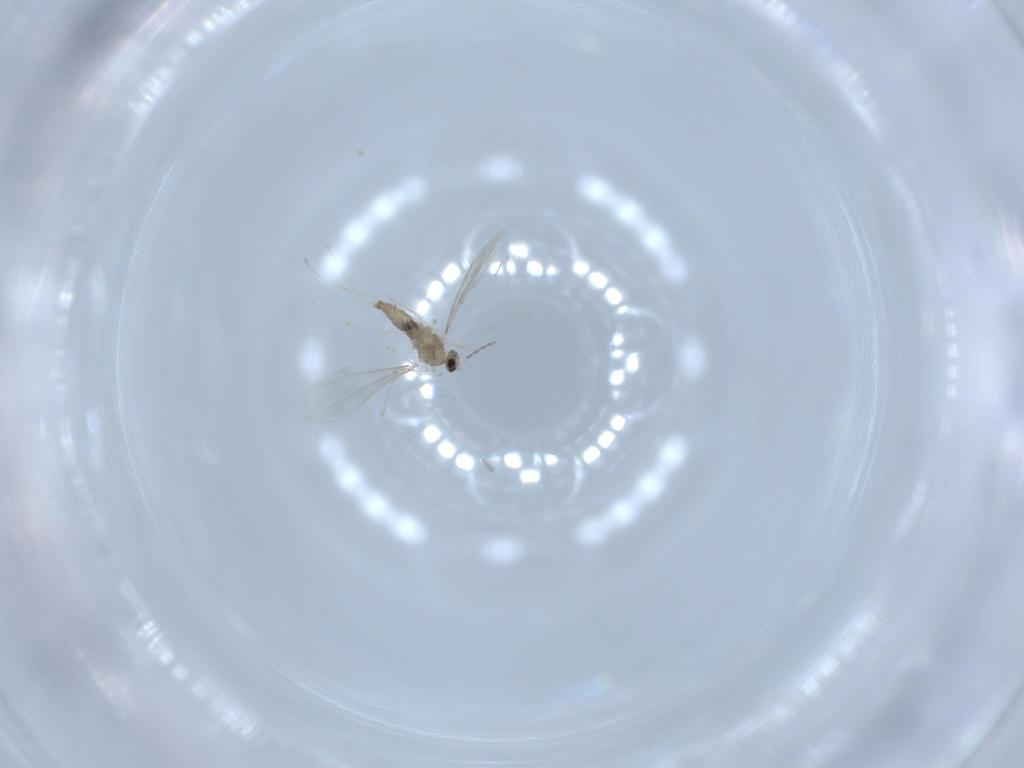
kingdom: Animalia
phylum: Arthropoda
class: Insecta
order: Diptera
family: Cecidomyiidae
